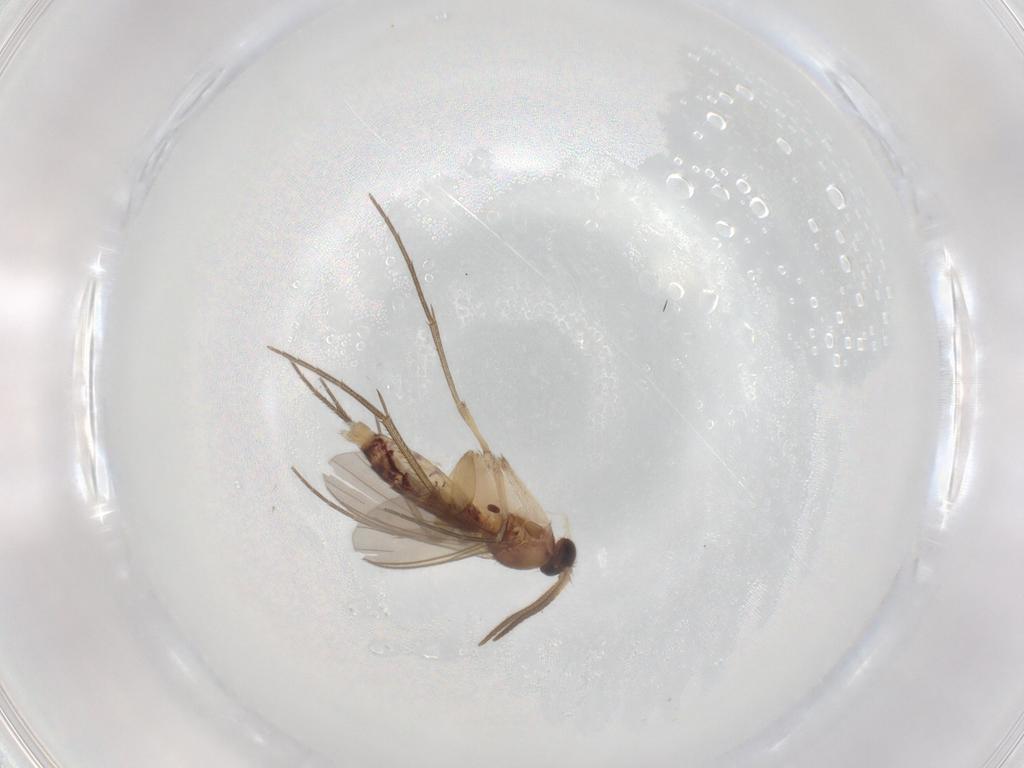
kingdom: Animalia
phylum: Arthropoda
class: Insecta
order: Diptera
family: Mycetophilidae
